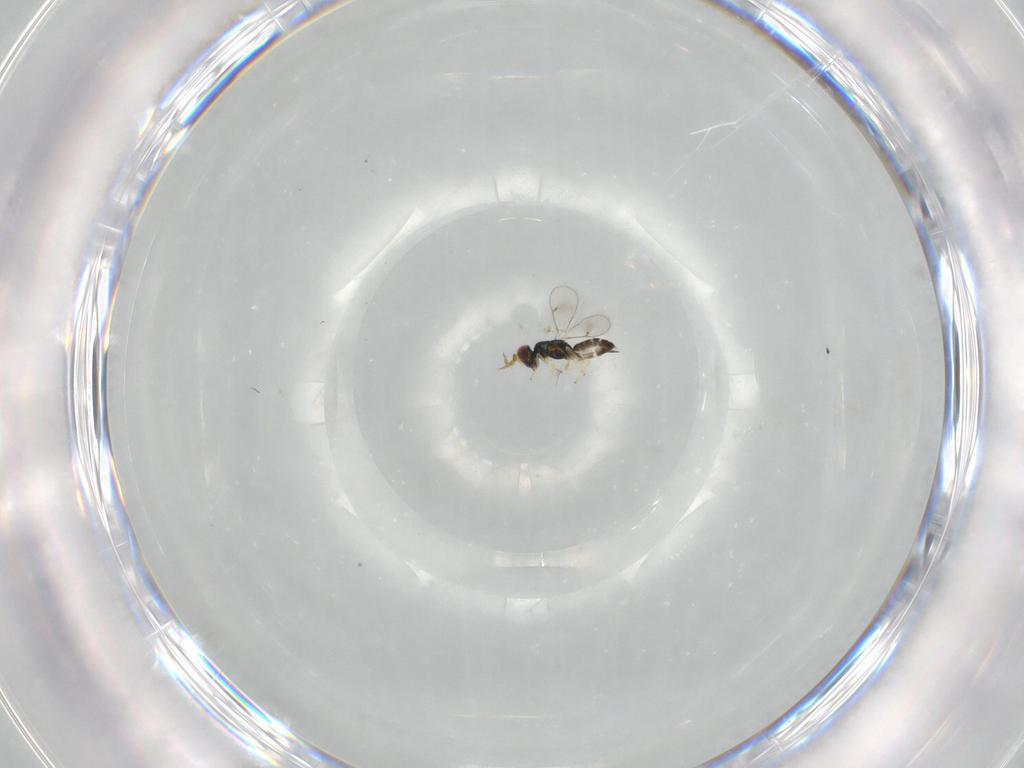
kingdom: Animalia
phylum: Arthropoda
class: Insecta
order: Hymenoptera
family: Eulophidae
